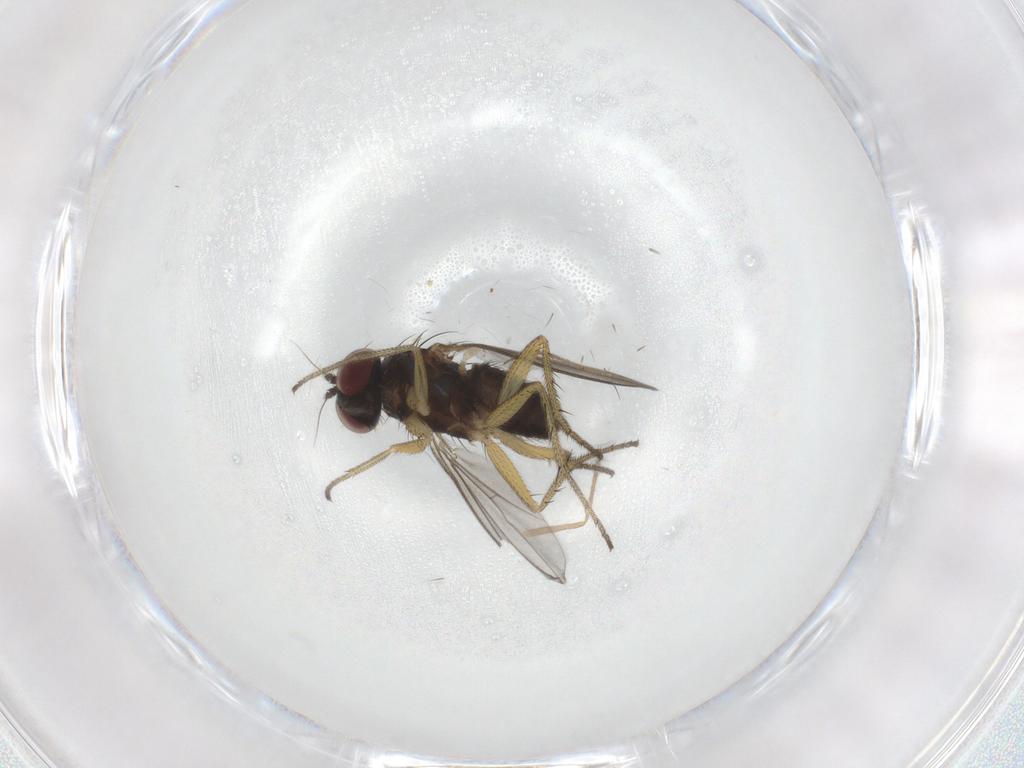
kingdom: Animalia
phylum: Arthropoda
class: Insecta
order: Diptera
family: Dolichopodidae
